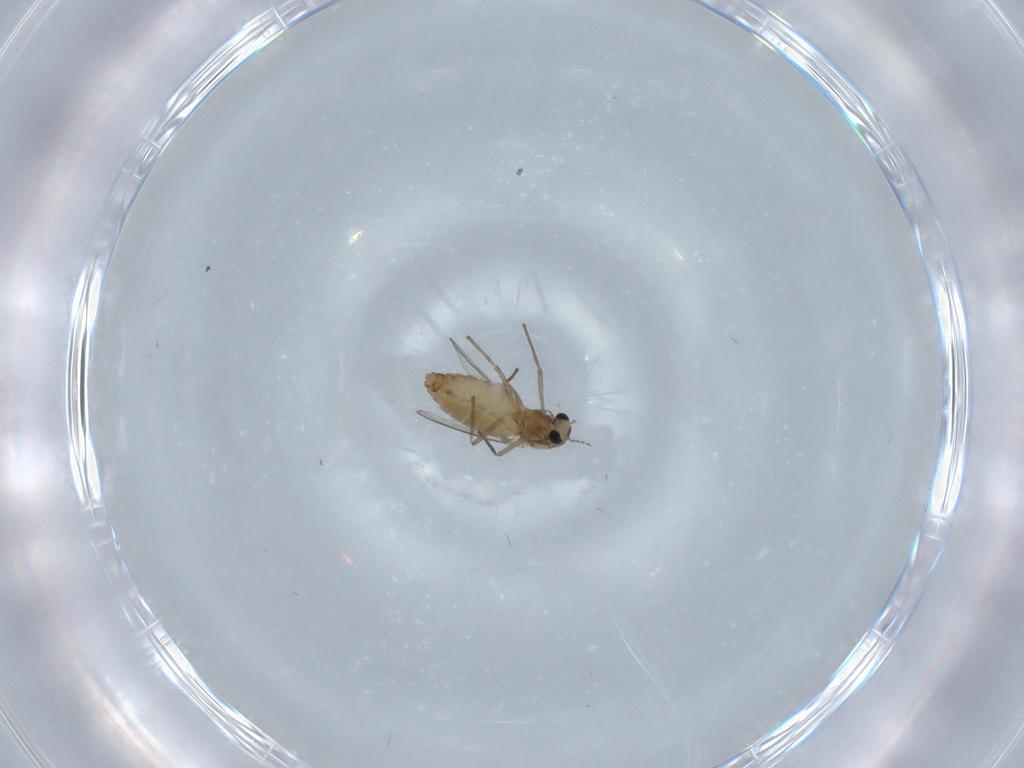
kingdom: Animalia
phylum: Arthropoda
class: Insecta
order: Diptera
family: Chironomidae
